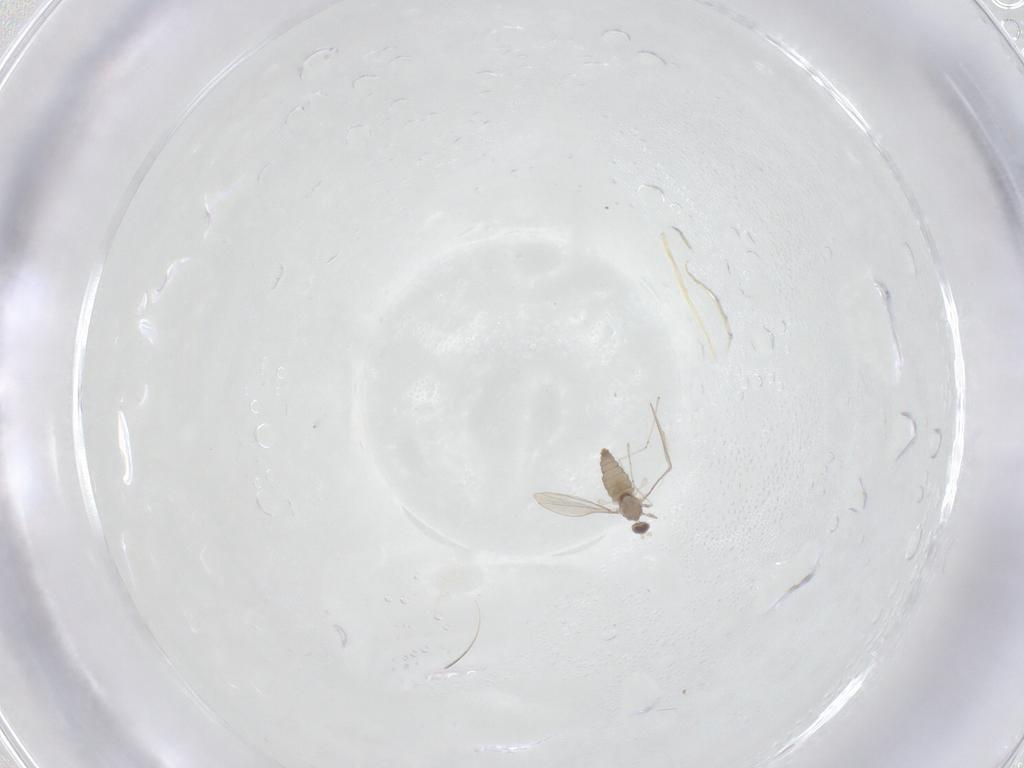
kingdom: Animalia
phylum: Arthropoda
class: Insecta
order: Diptera
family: Cecidomyiidae
